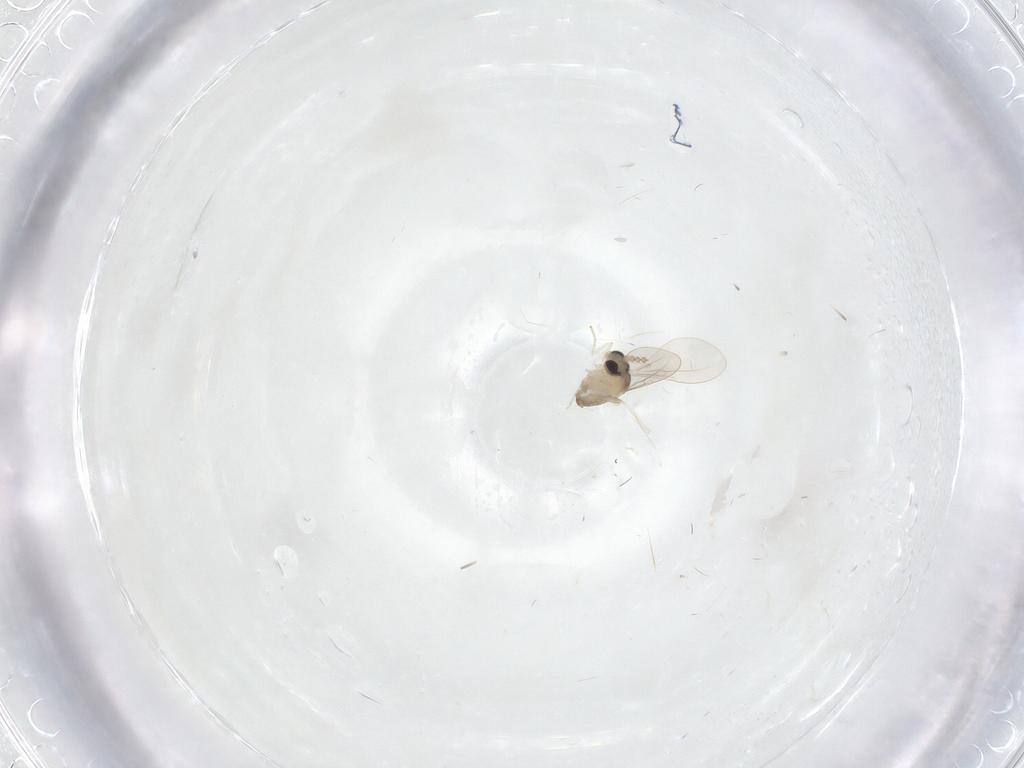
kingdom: Animalia
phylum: Arthropoda
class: Insecta
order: Diptera
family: Cecidomyiidae
